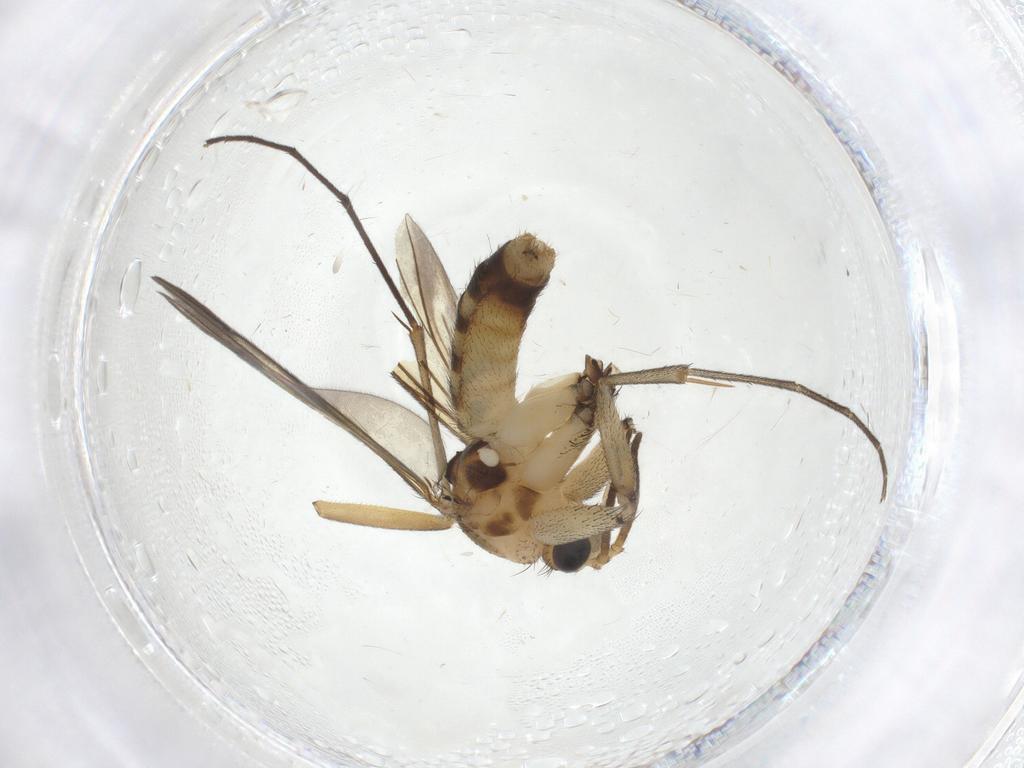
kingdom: Animalia
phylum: Arthropoda
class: Insecta
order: Diptera
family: Mycetophilidae
